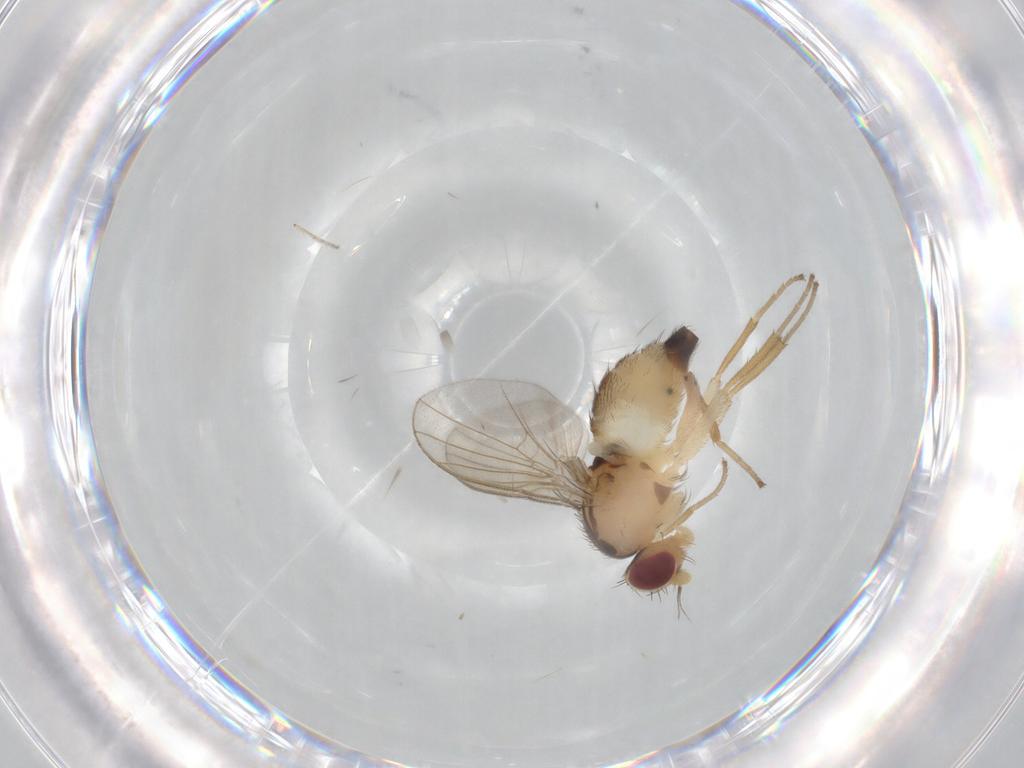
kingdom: Animalia
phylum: Arthropoda
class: Insecta
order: Diptera
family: Agromyzidae
